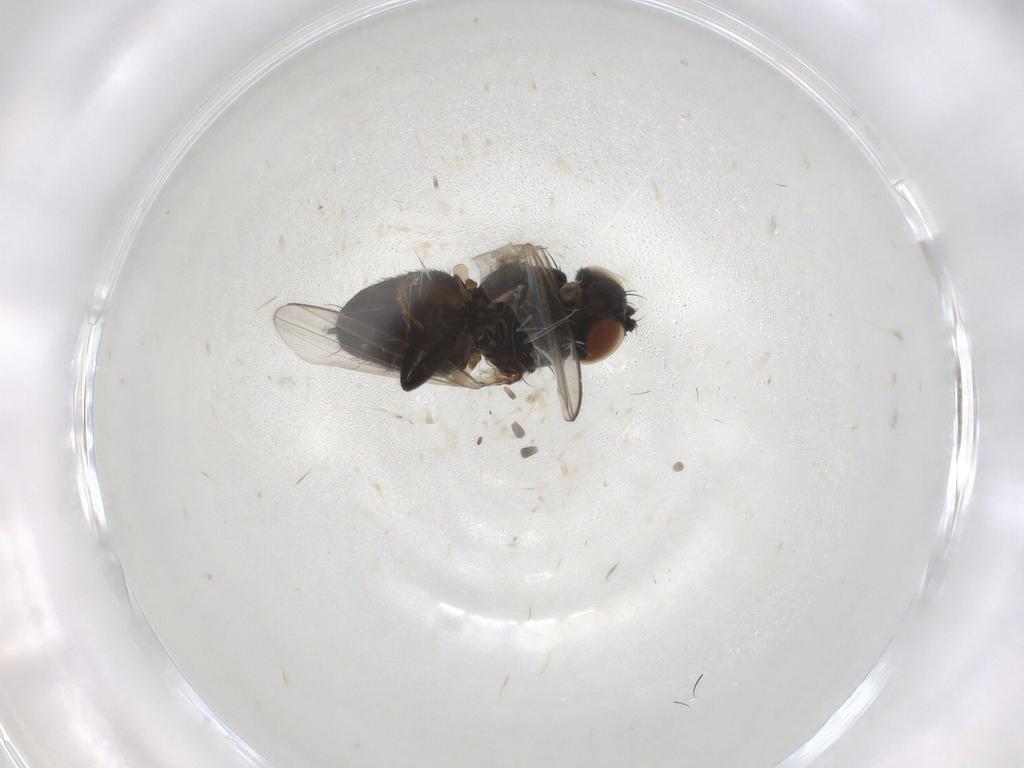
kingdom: Animalia
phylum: Arthropoda
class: Insecta
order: Diptera
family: Milichiidae
